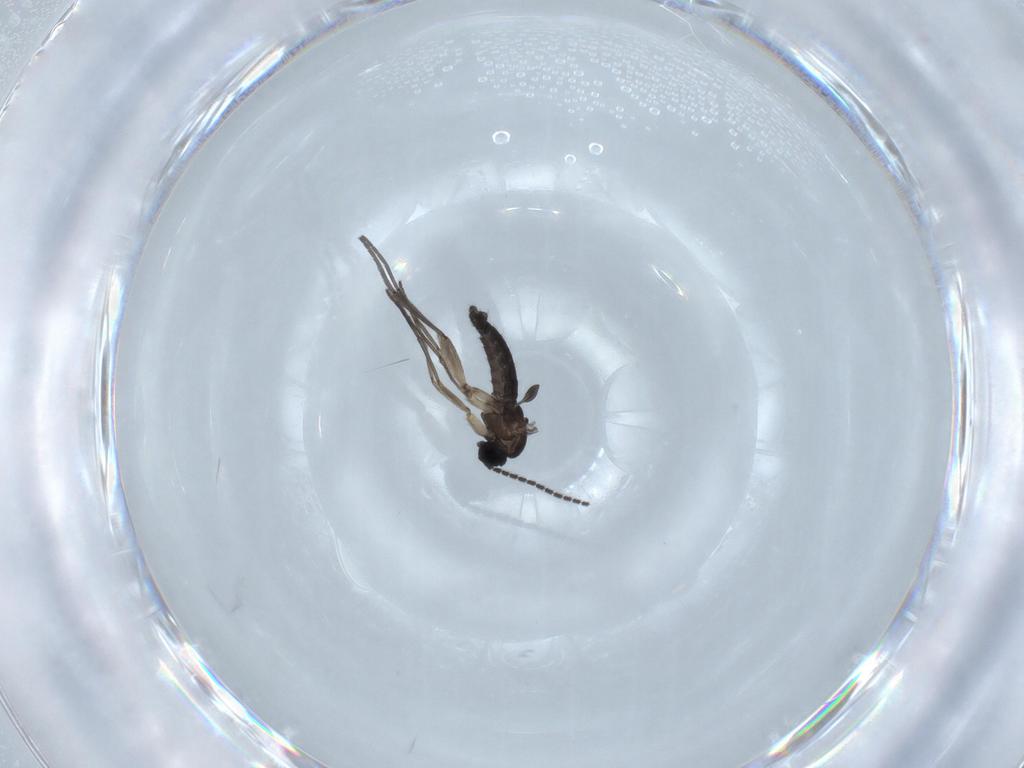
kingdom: Animalia
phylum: Arthropoda
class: Insecta
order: Diptera
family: Sciaridae
